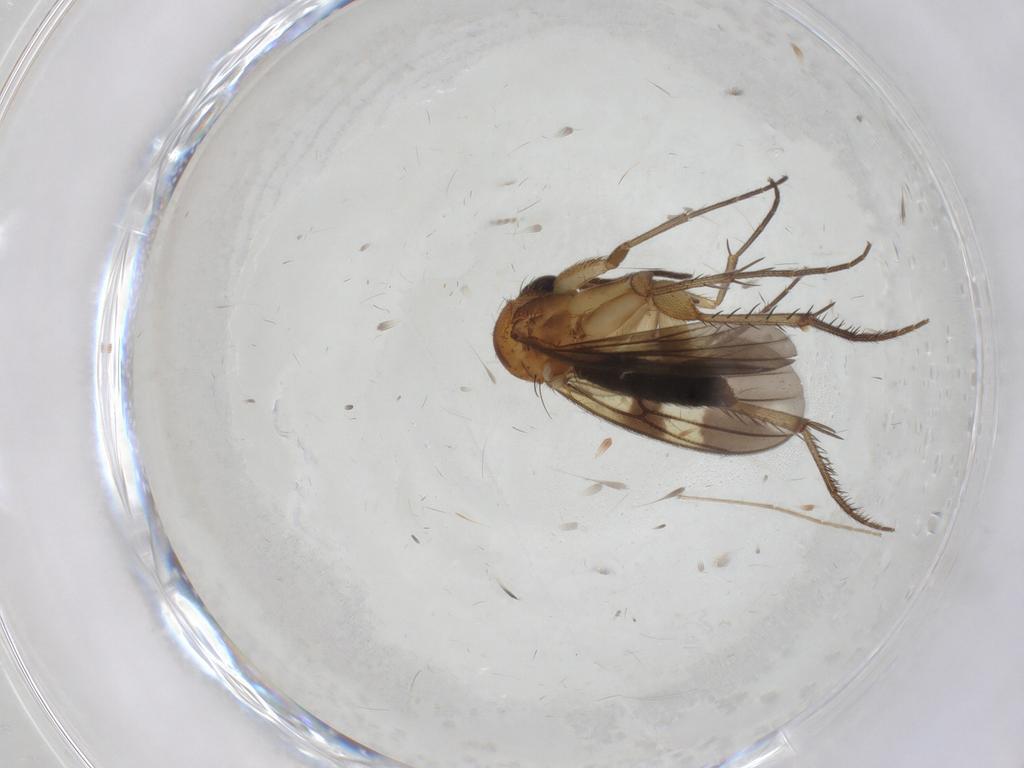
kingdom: Animalia
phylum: Arthropoda
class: Insecta
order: Diptera
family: Mycetophilidae
